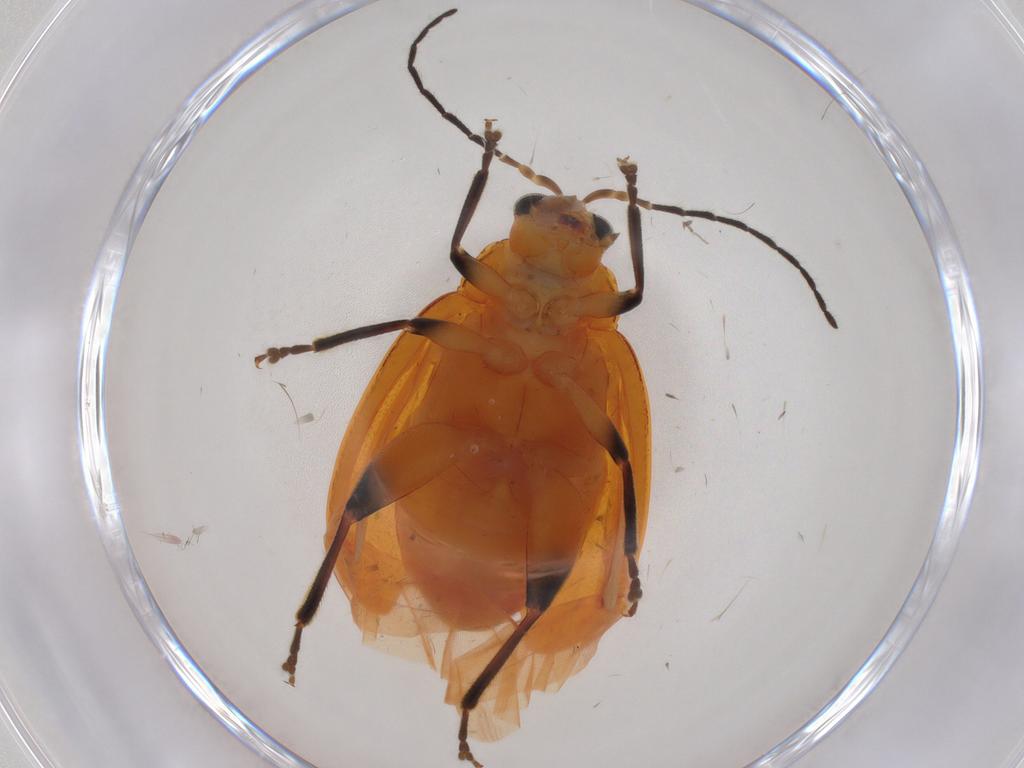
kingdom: Animalia
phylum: Arthropoda
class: Insecta
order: Coleoptera
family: Chrysomelidae
